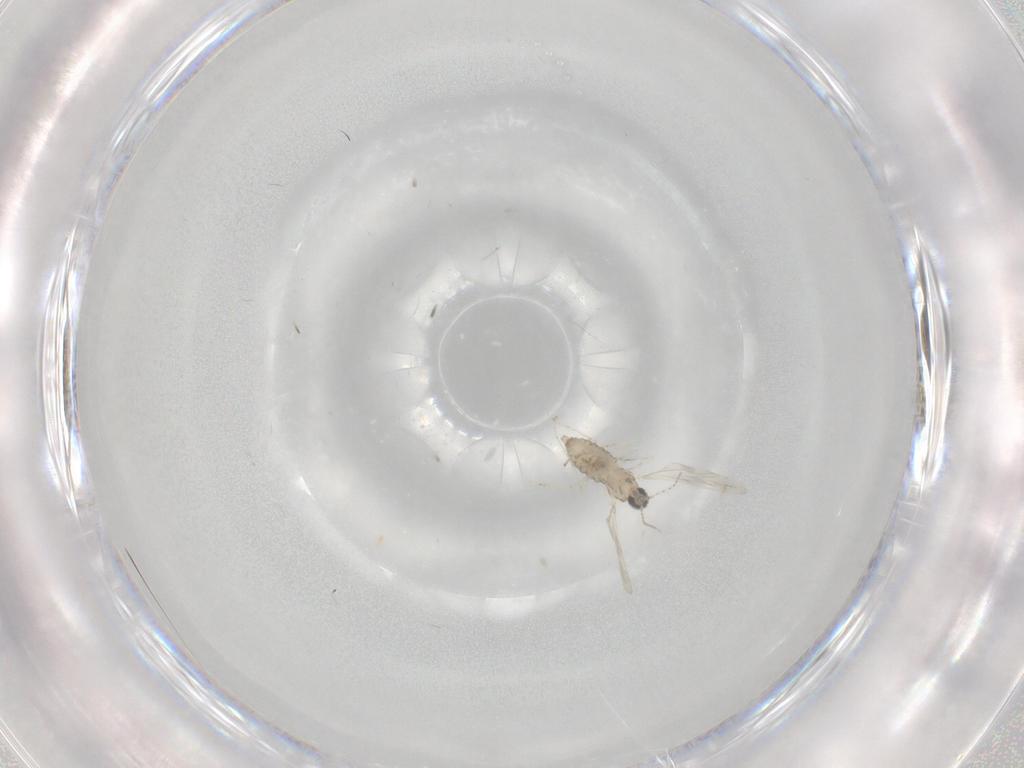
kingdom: Animalia
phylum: Arthropoda
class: Insecta
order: Diptera
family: Cecidomyiidae
